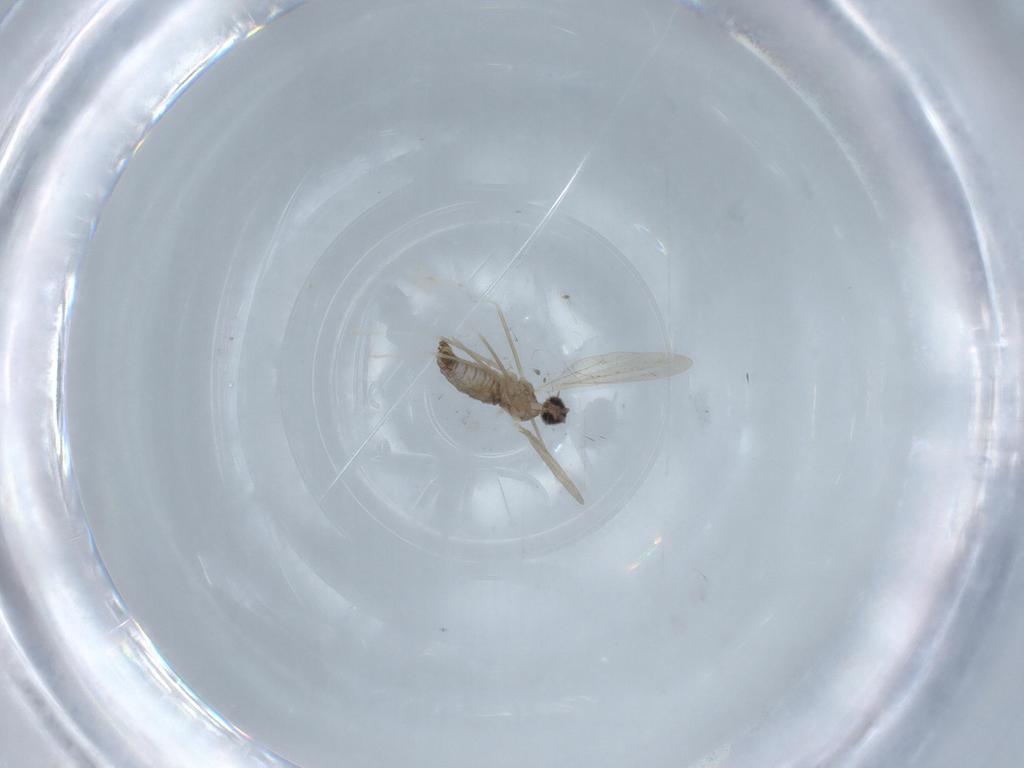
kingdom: Animalia
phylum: Arthropoda
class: Insecta
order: Diptera
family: Cecidomyiidae
